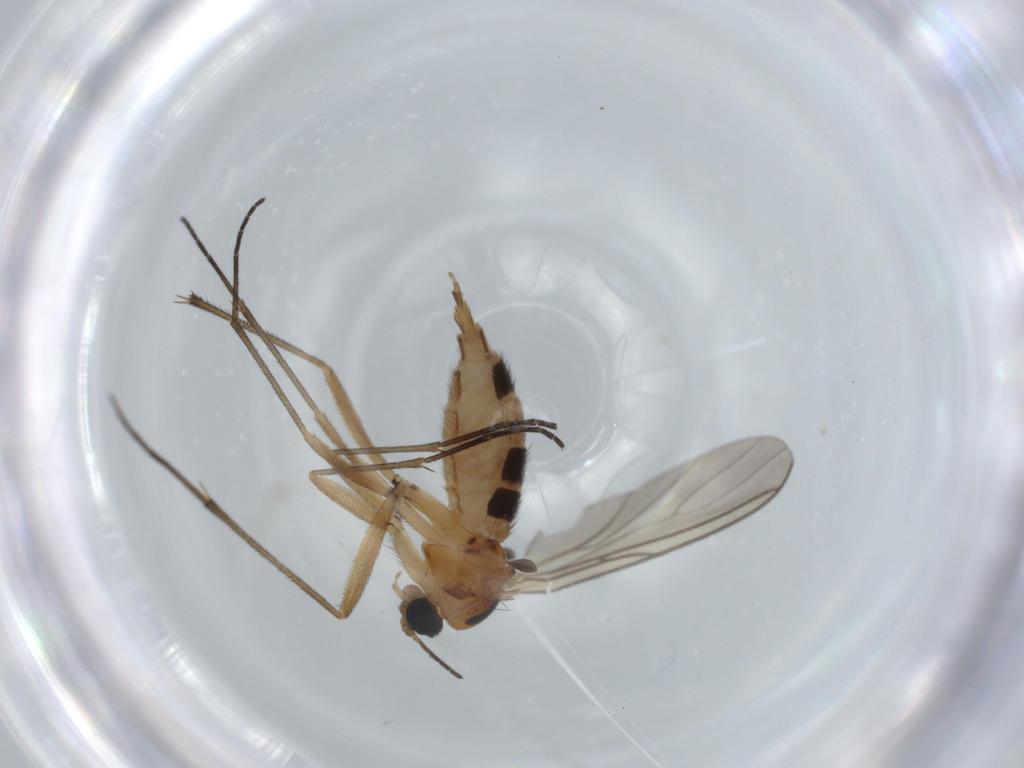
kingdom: Animalia
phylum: Arthropoda
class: Insecta
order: Diptera
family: Sciaridae
